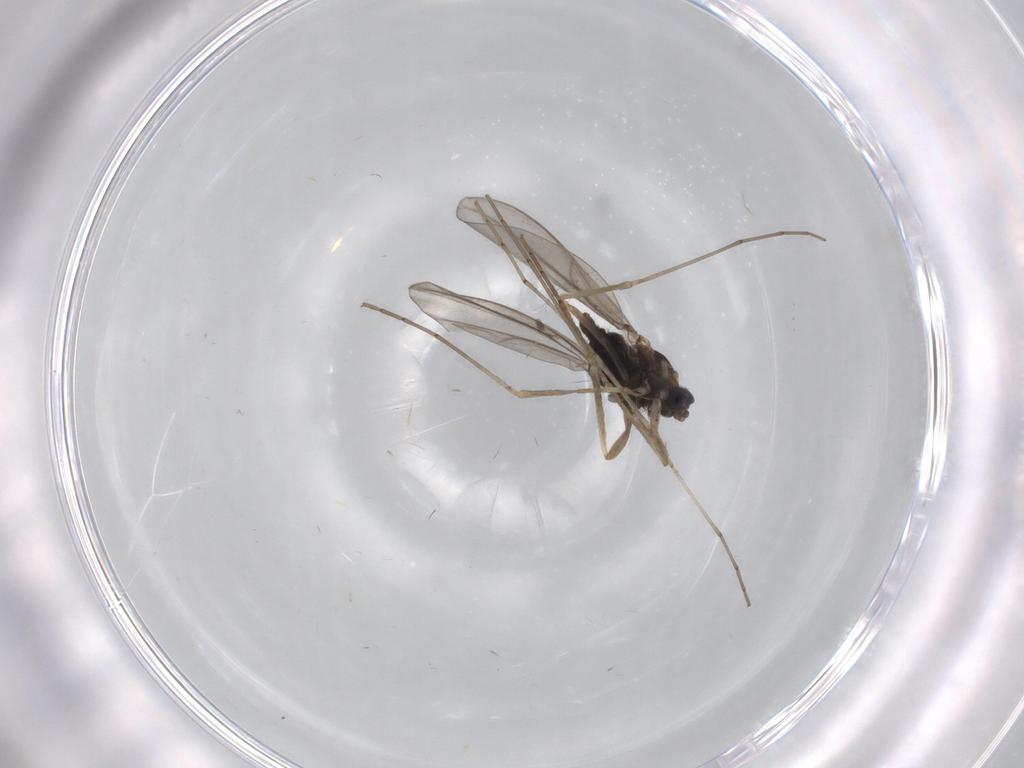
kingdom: Animalia
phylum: Arthropoda
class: Insecta
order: Diptera
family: Cecidomyiidae
